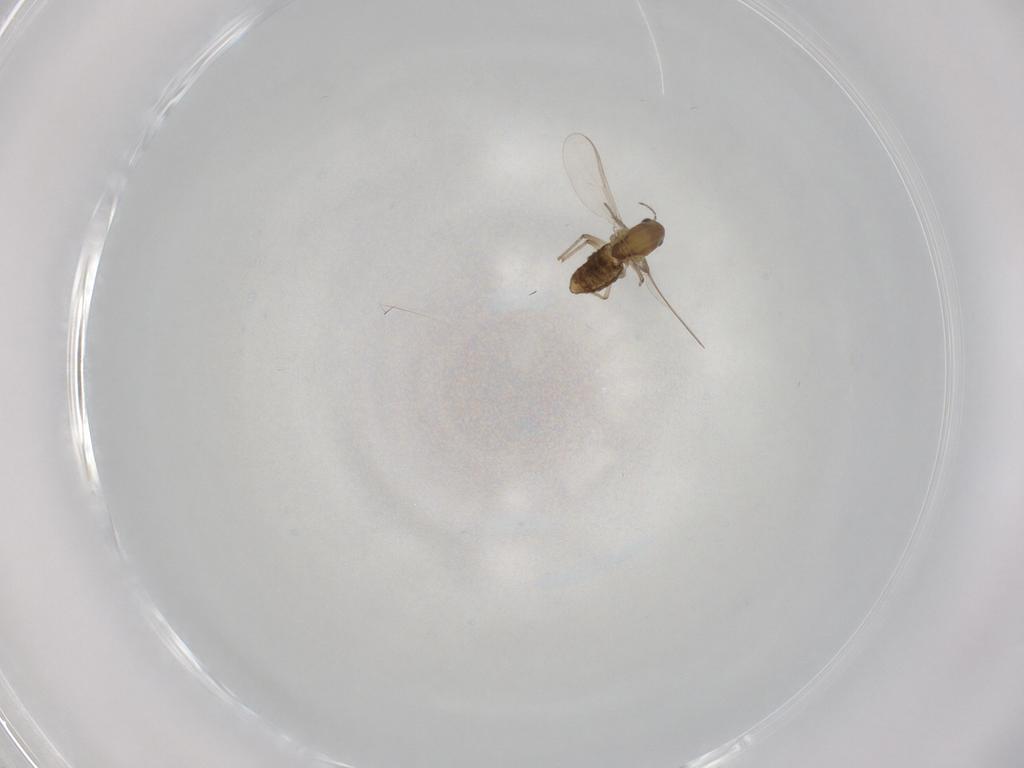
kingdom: Animalia
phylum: Arthropoda
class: Insecta
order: Diptera
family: Chironomidae
